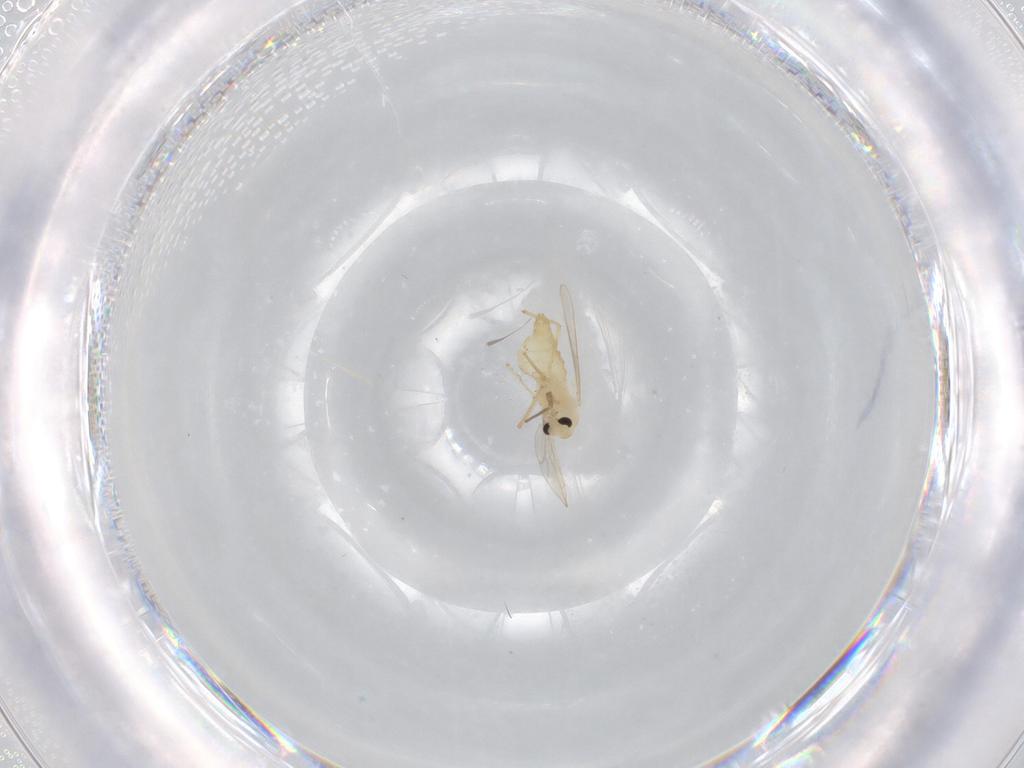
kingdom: Animalia
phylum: Arthropoda
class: Insecta
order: Diptera
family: Chironomidae
